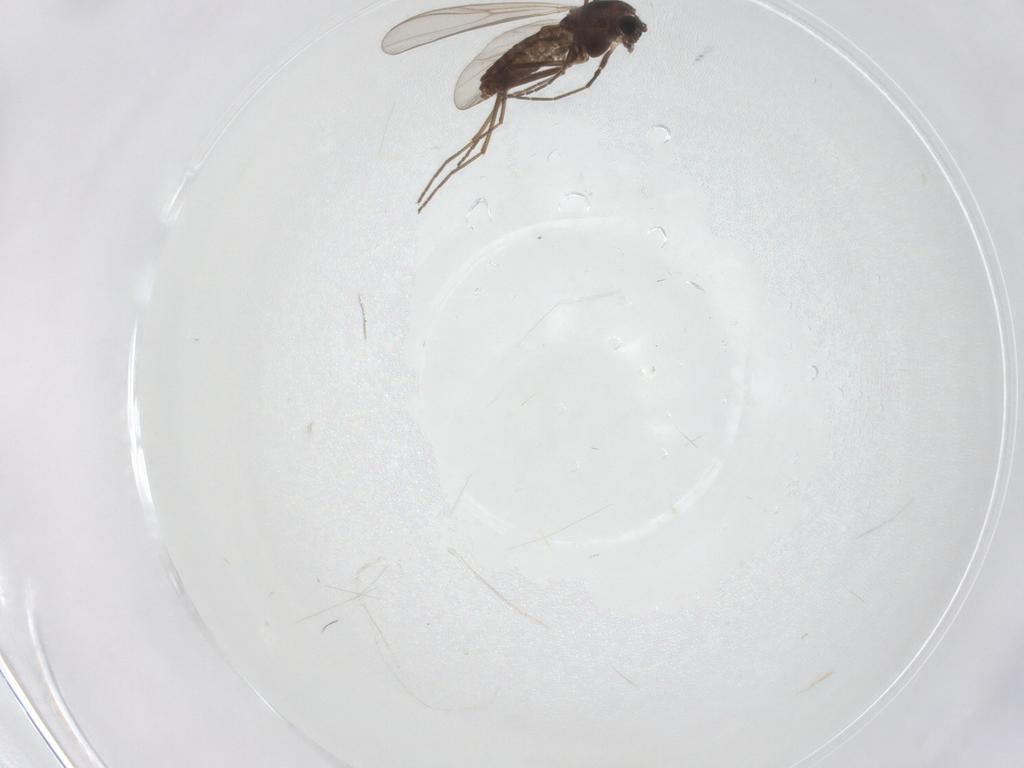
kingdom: Animalia
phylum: Arthropoda
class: Insecta
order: Diptera
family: Chironomidae
